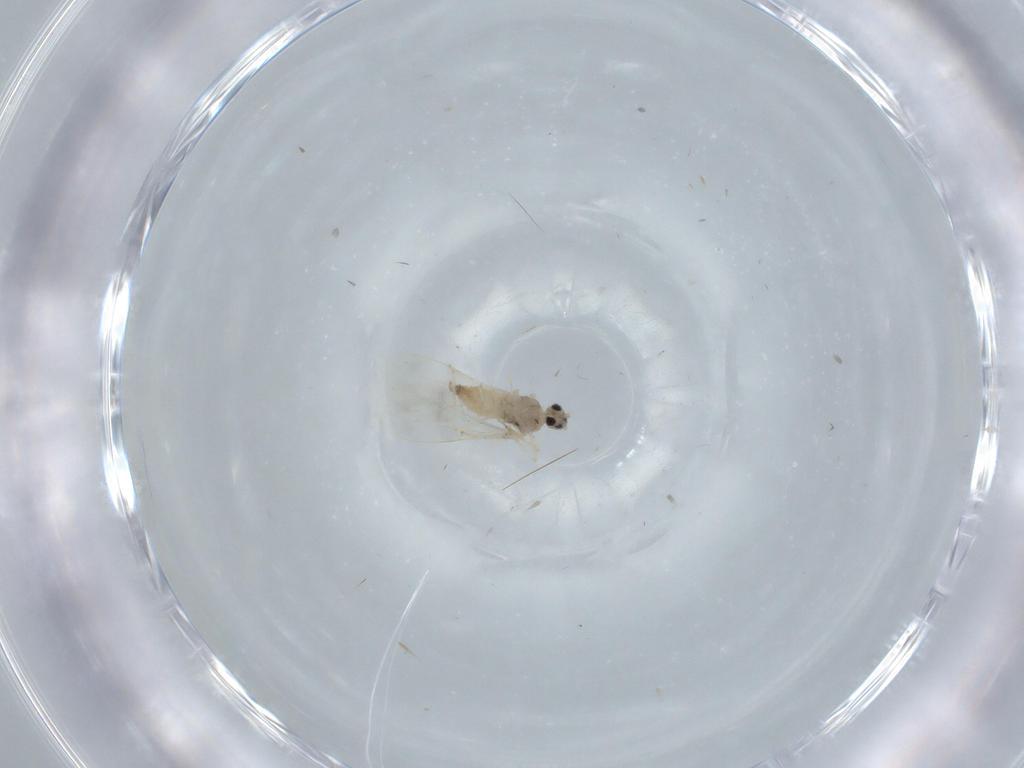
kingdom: Animalia
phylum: Arthropoda
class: Insecta
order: Diptera
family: Cecidomyiidae
